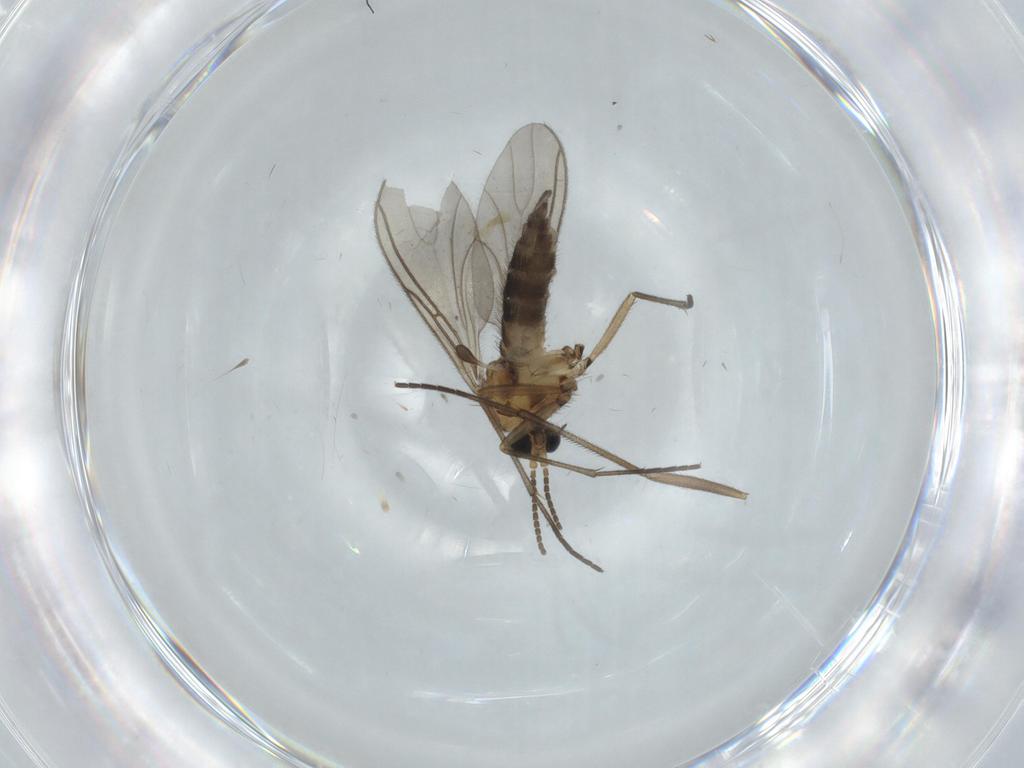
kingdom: Animalia
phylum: Arthropoda
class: Insecta
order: Diptera
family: Sciaridae
